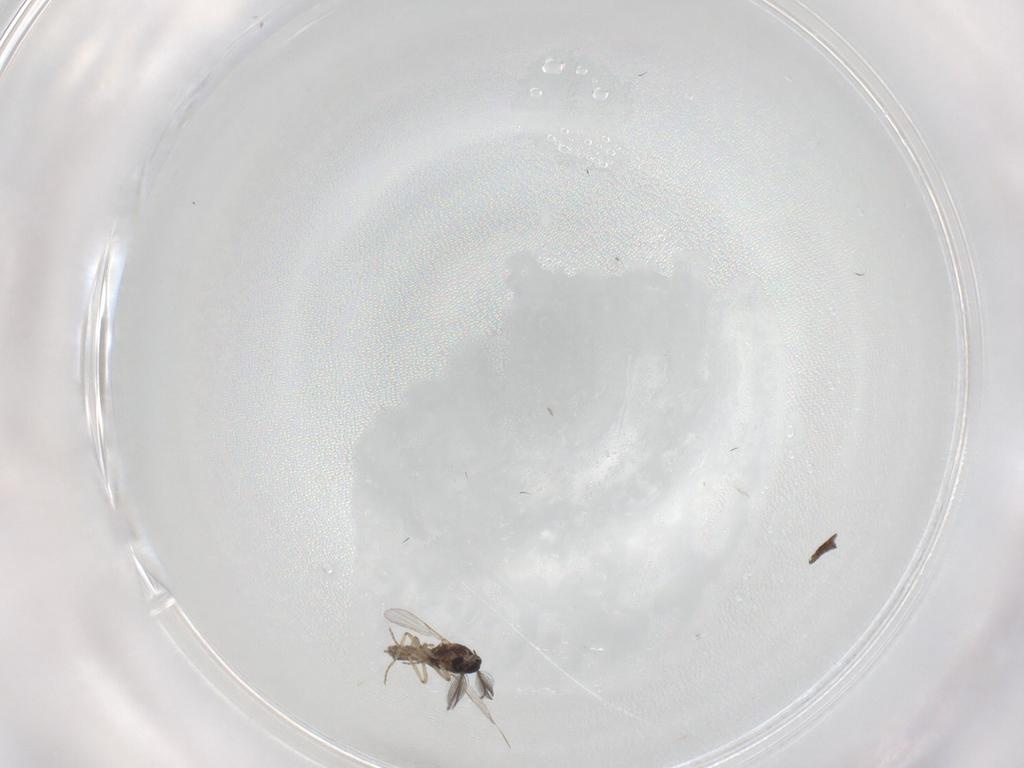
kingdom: Animalia
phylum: Arthropoda
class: Insecta
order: Diptera
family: Ceratopogonidae
